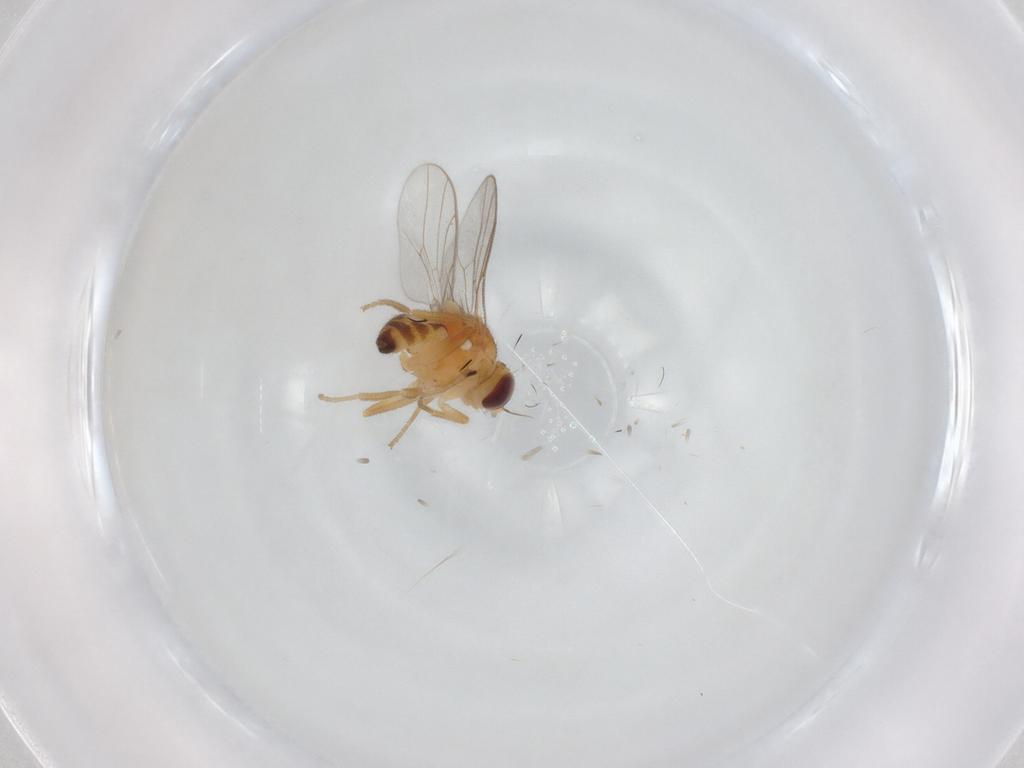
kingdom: Animalia
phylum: Arthropoda
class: Insecta
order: Diptera
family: Chloropidae
